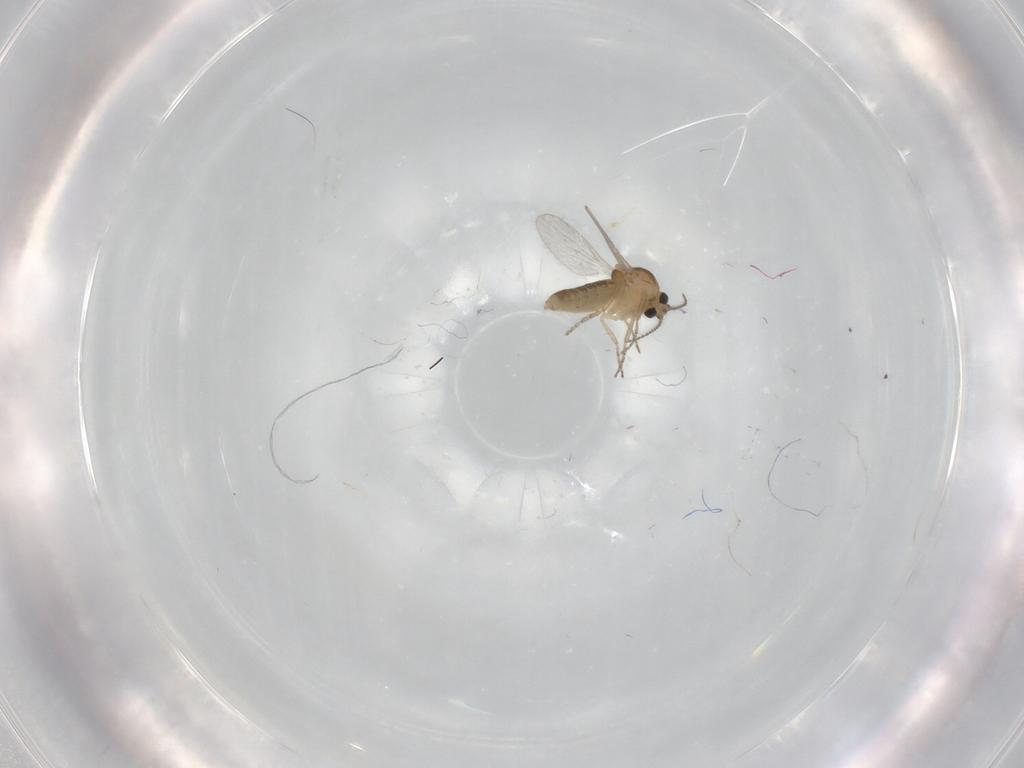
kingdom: Animalia
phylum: Arthropoda
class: Insecta
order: Diptera
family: Ceratopogonidae
